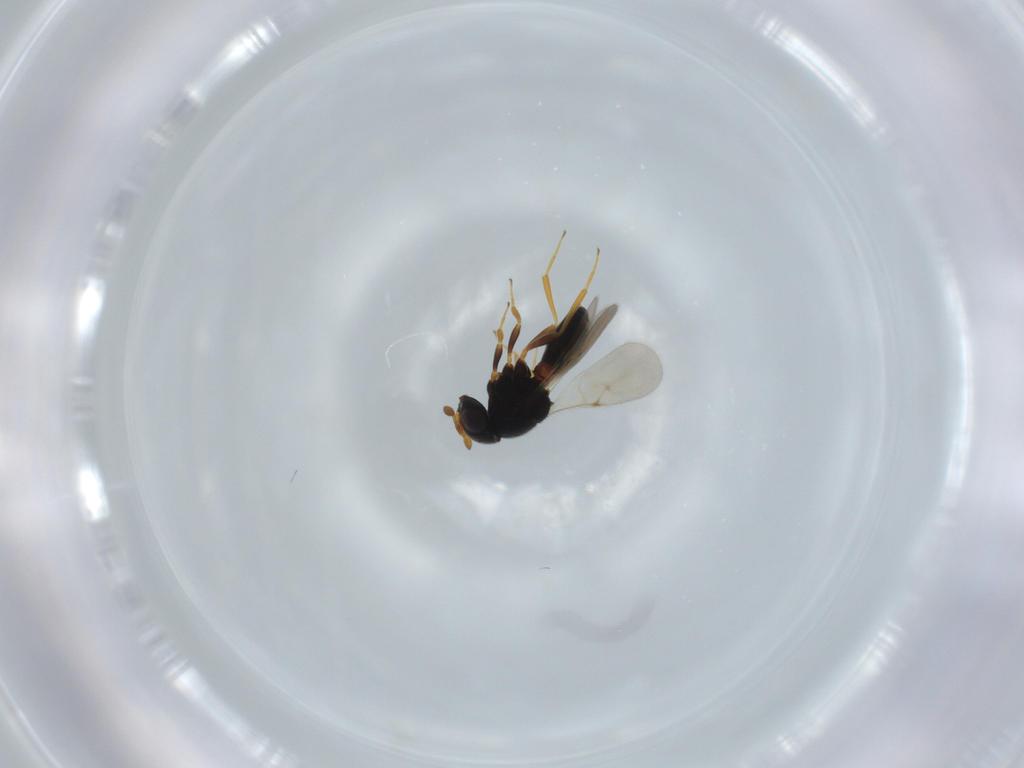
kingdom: Animalia
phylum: Arthropoda
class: Insecta
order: Hymenoptera
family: Scelionidae
